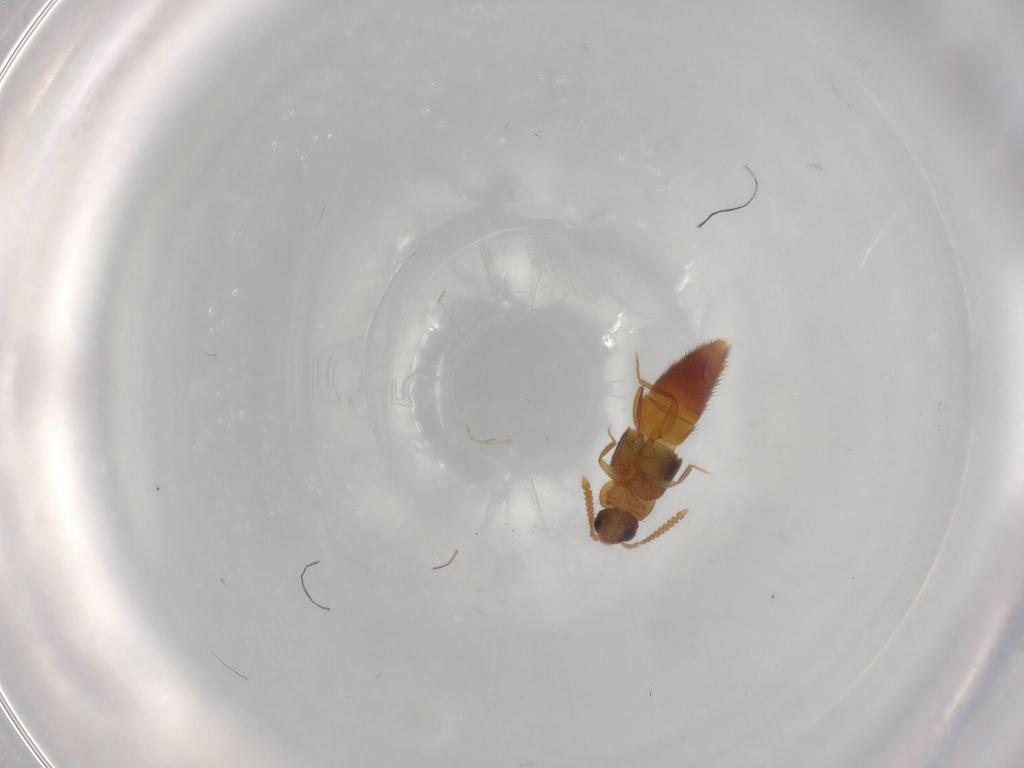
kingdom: Animalia
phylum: Arthropoda
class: Insecta
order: Coleoptera
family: Staphylinidae
